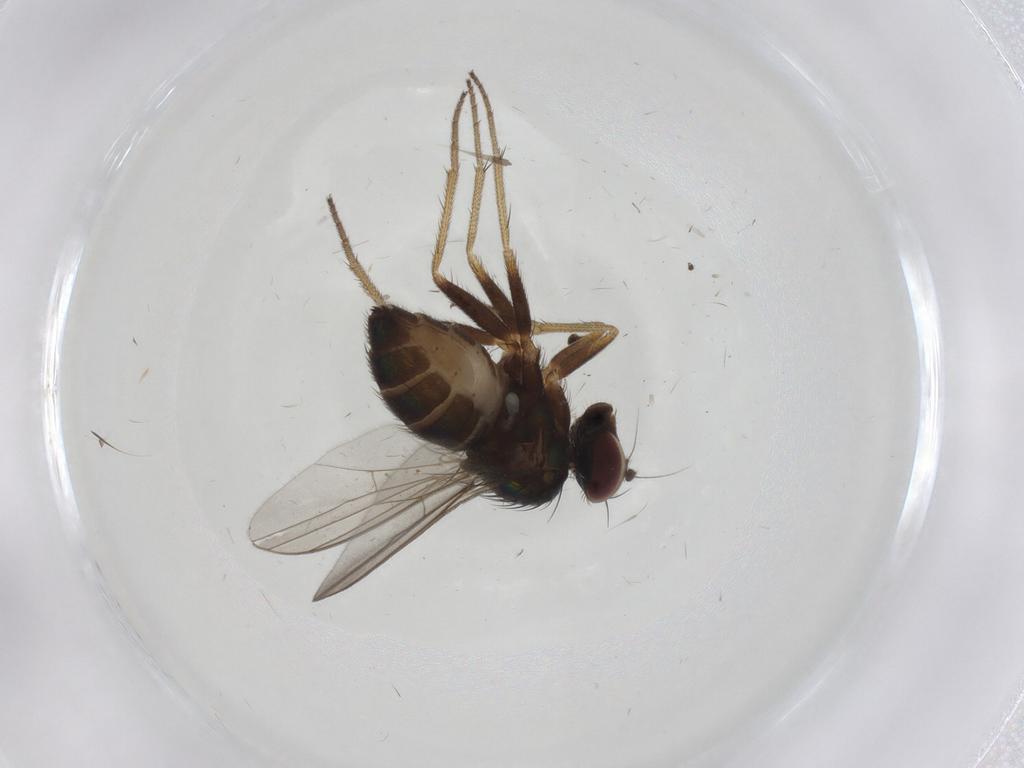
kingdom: Animalia
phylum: Arthropoda
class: Insecta
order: Diptera
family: Cecidomyiidae
